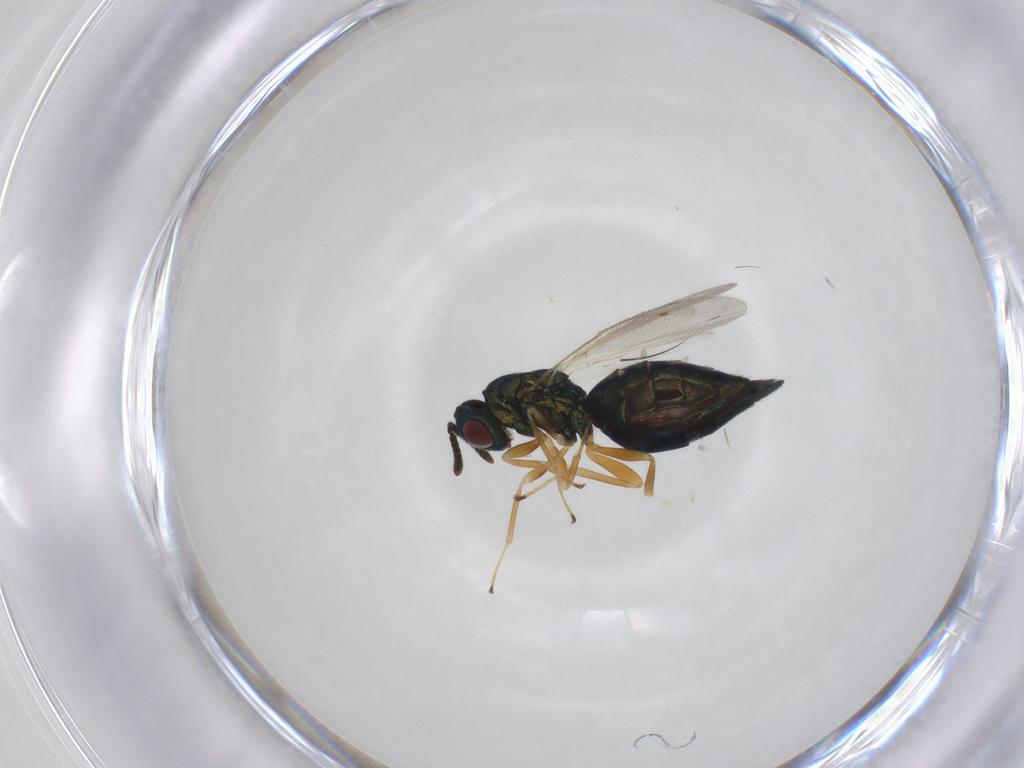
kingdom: Animalia
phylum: Arthropoda
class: Insecta
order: Hymenoptera
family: Pteromalidae
